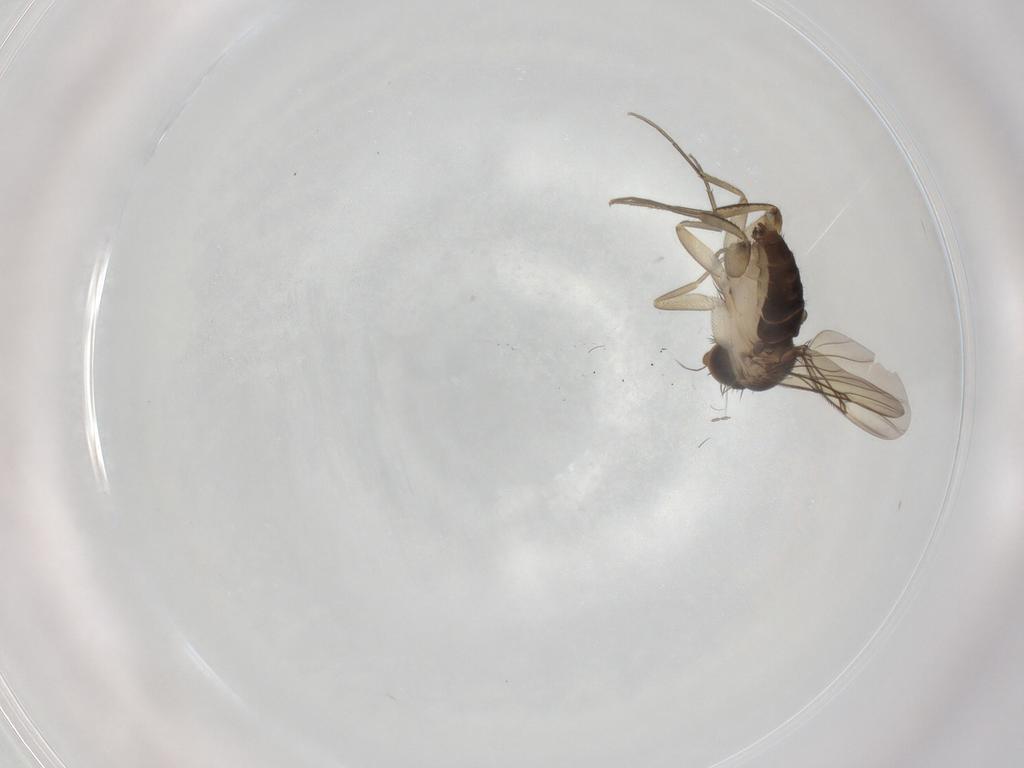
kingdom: Animalia
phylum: Arthropoda
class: Insecta
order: Diptera
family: Phoridae
